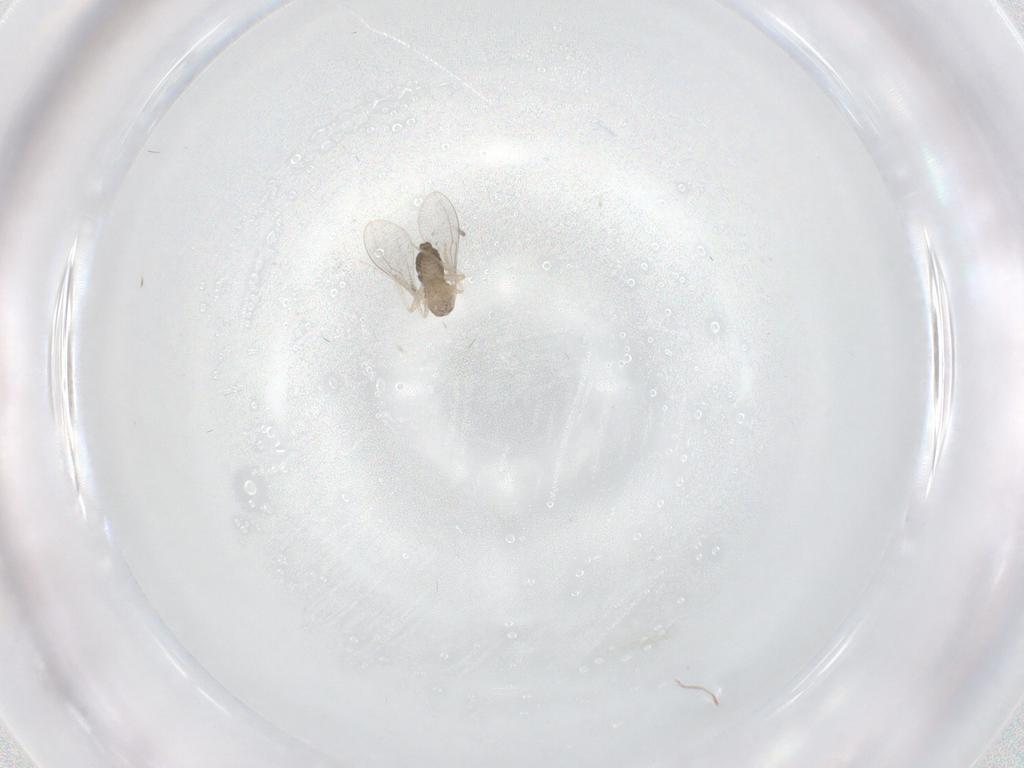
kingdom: Animalia
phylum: Arthropoda
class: Insecta
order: Diptera
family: Cecidomyiidae
